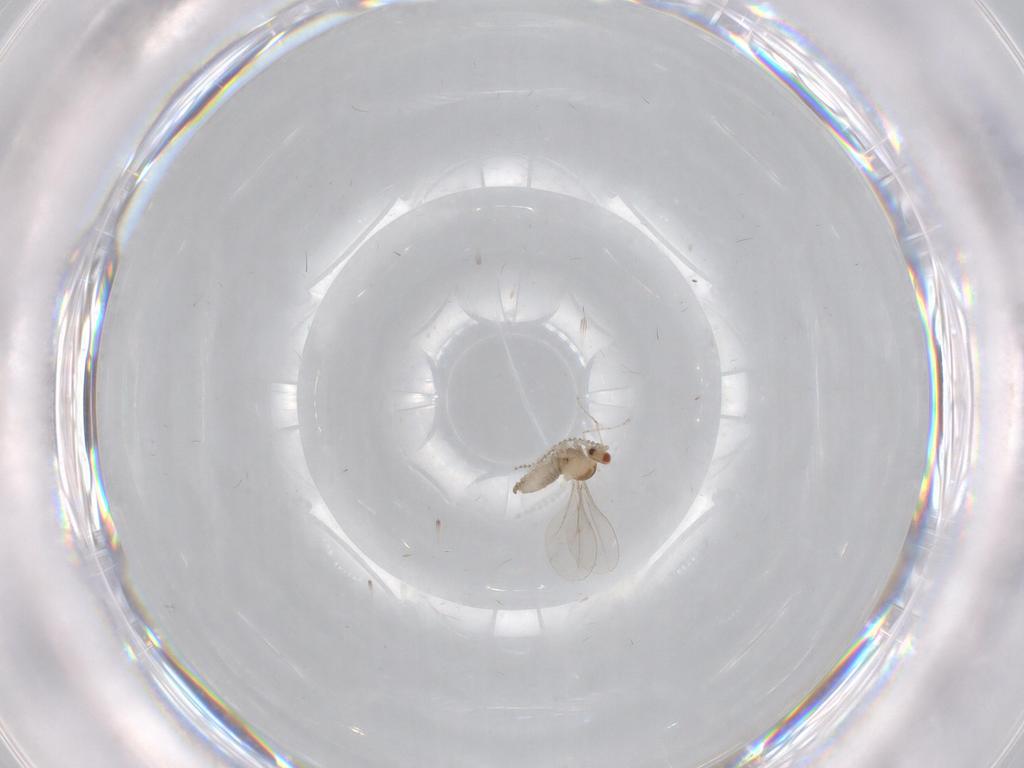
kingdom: Animalia
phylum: Arthropoda
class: Insecta
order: Diptera
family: Cecidomyiidae
